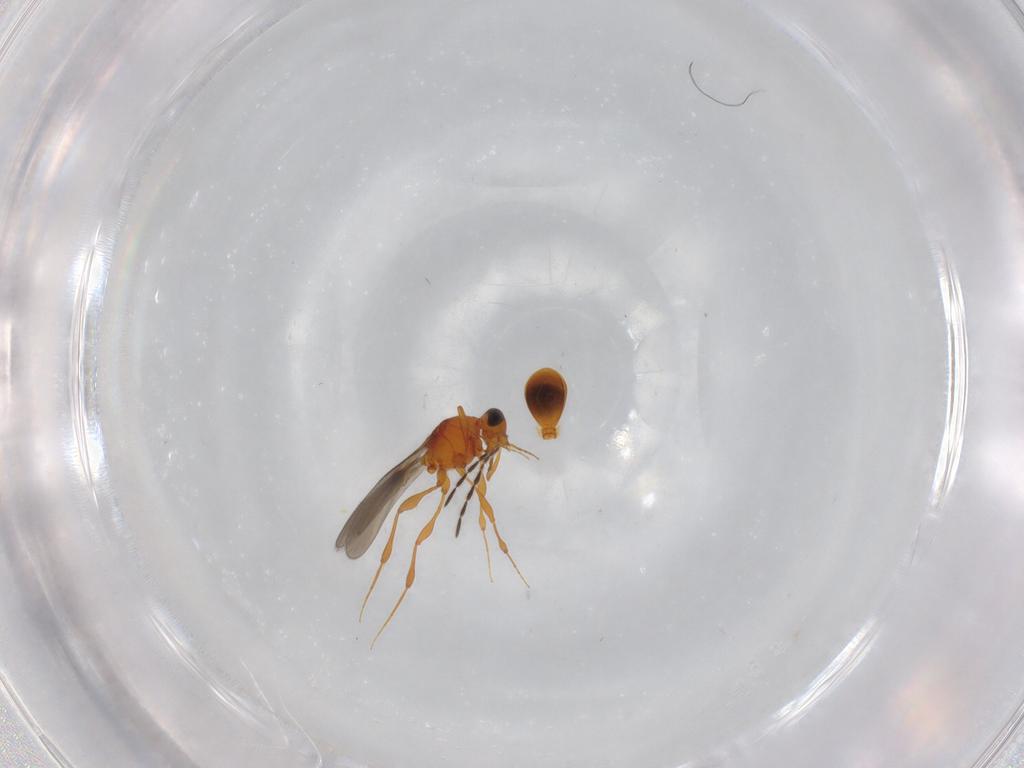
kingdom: Animalia
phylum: Arthropoda
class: Insecta
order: Hymenoptera
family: Platygastridae
